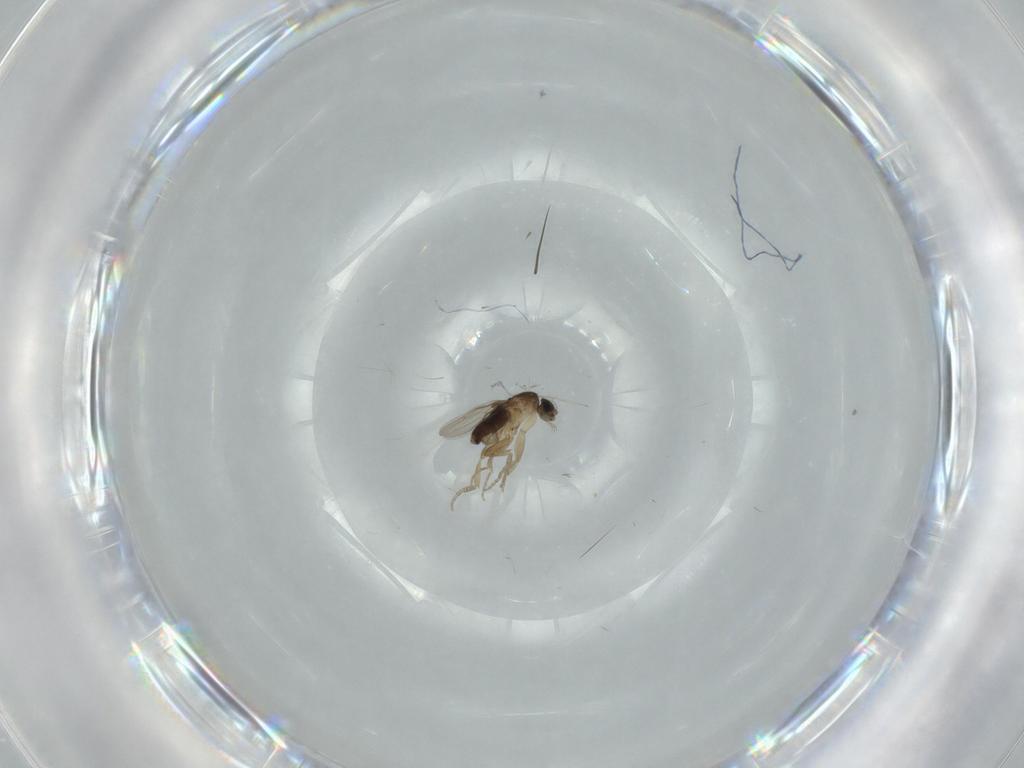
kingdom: Animalia
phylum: Arthropoda
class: Insecta
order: Diptera
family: Phoridae
